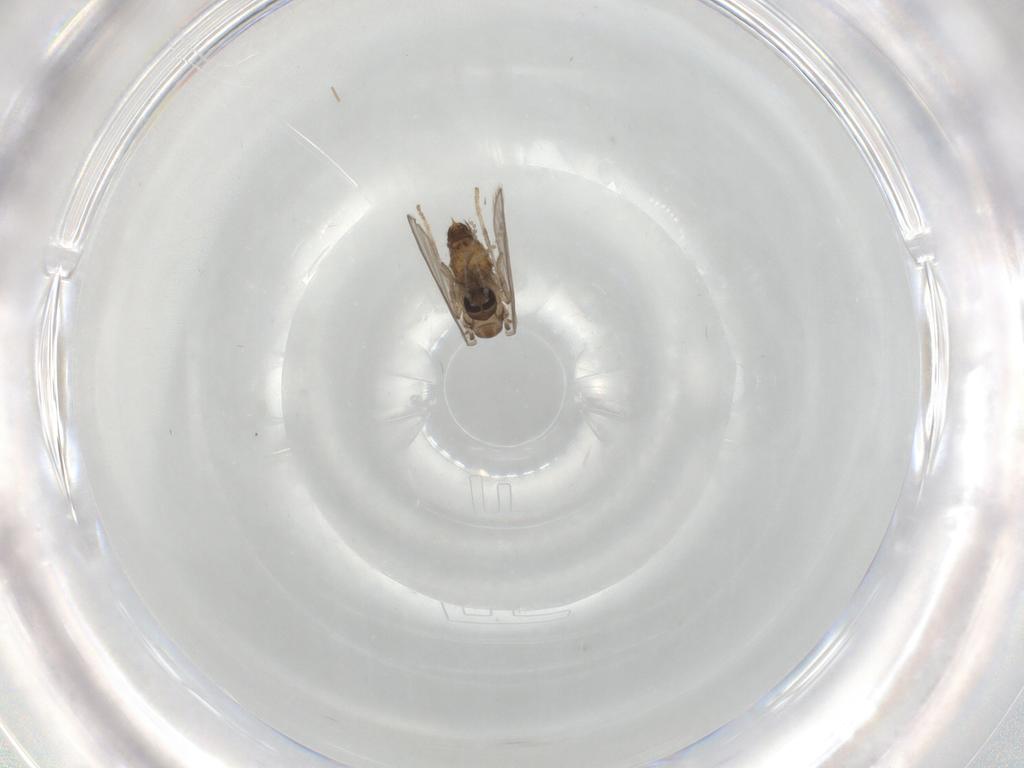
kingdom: Animalia
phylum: Arthropoda
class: Insecta
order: Diptera
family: Psychodidae
